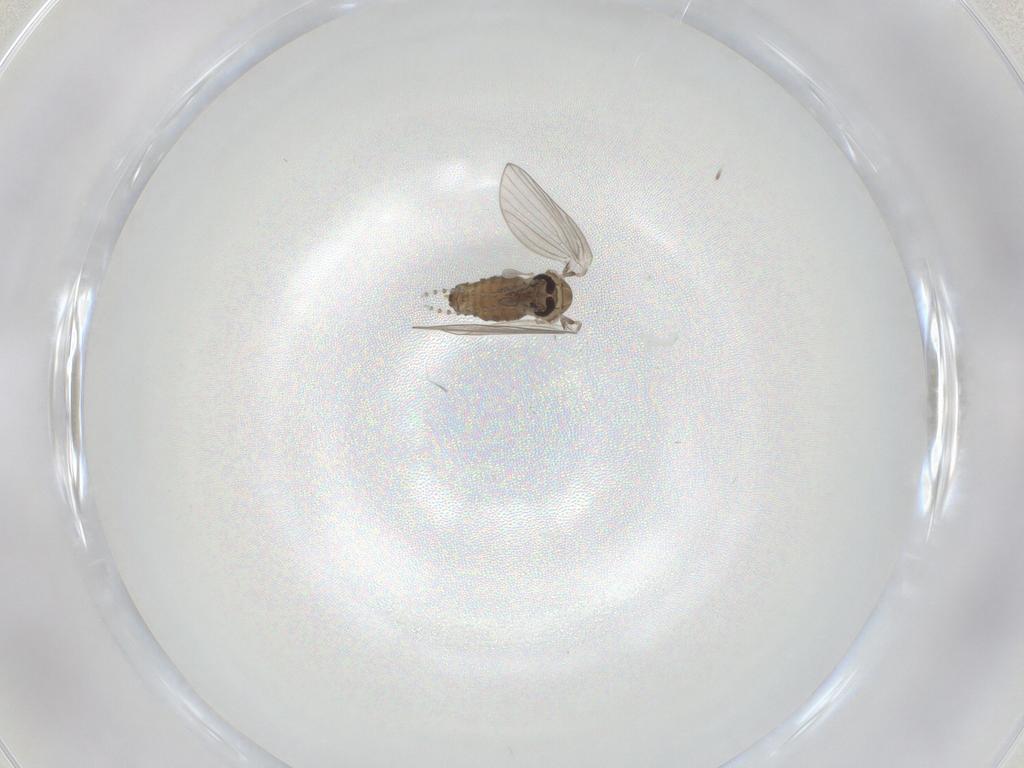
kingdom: Animalia
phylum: Arthropoda
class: Insecta
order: Diptera
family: Psychodidae
